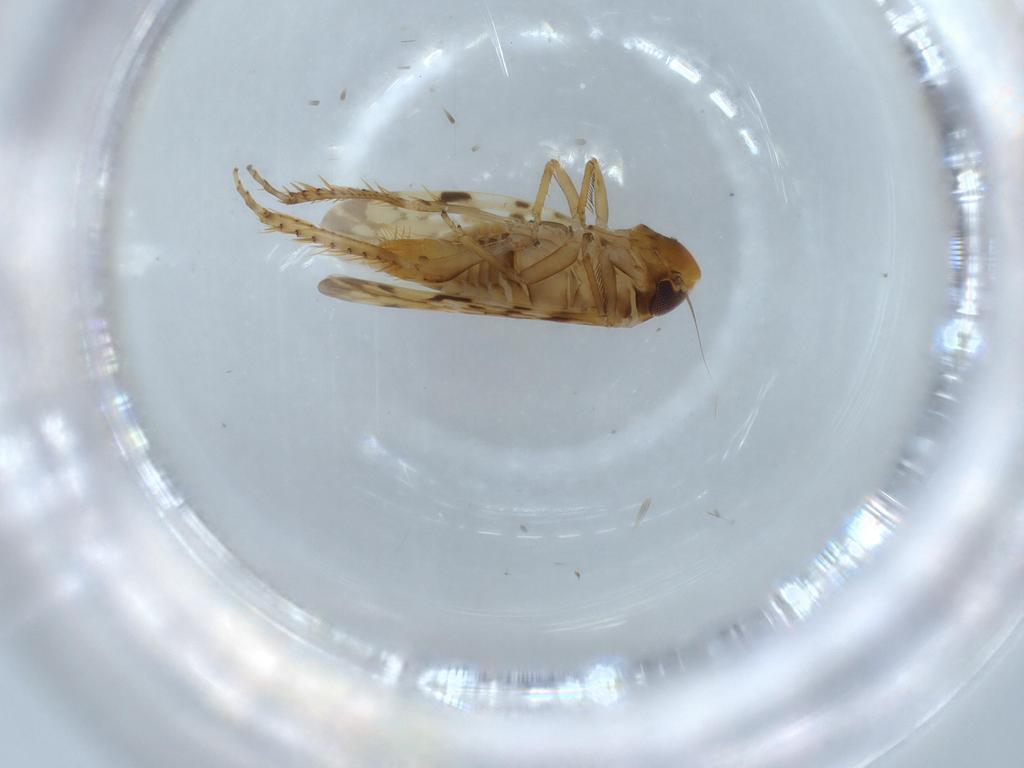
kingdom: Animalia
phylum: Arthropoda
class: Insecta
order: Hemiptera
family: Cicadellidae
